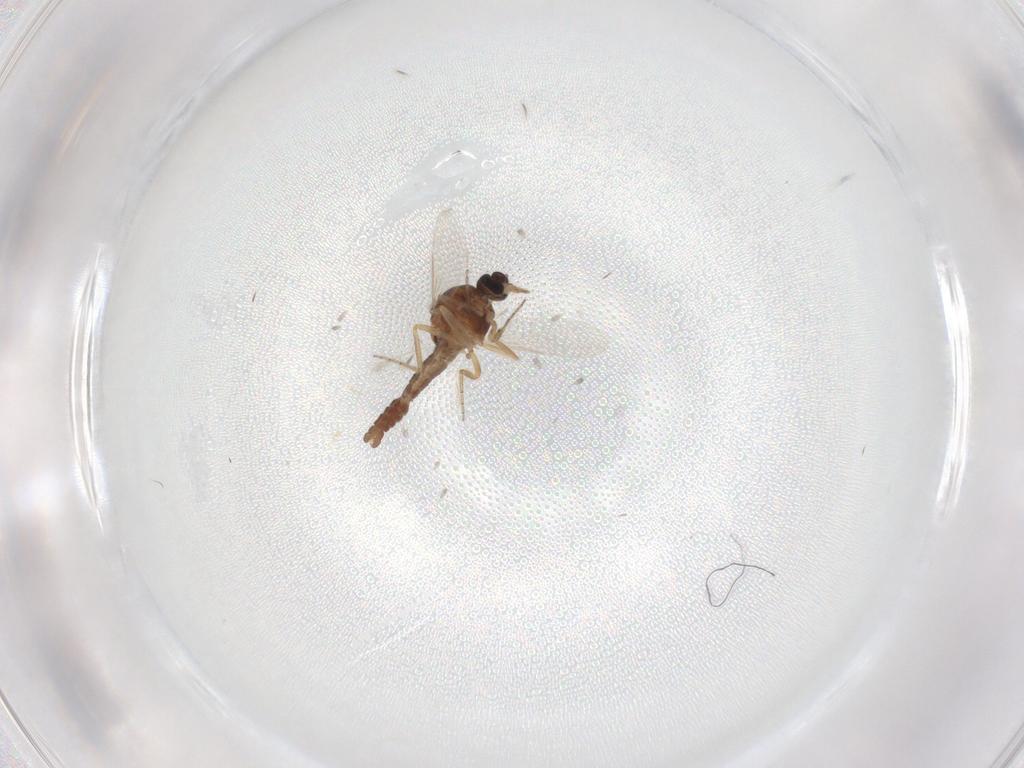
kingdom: Animalia
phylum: Arthropoda
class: Insecta
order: Diptera
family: Ceratopogonidae
